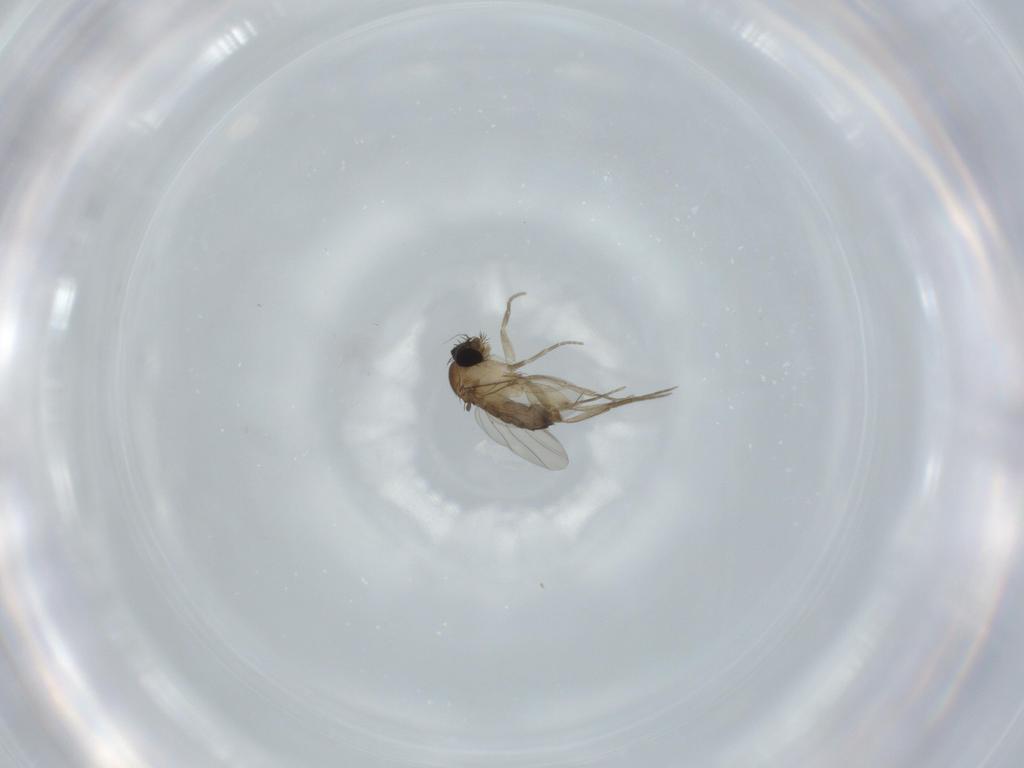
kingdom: Animalia
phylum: Arthropoda
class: Insecta
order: Diptera
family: Phoridae
